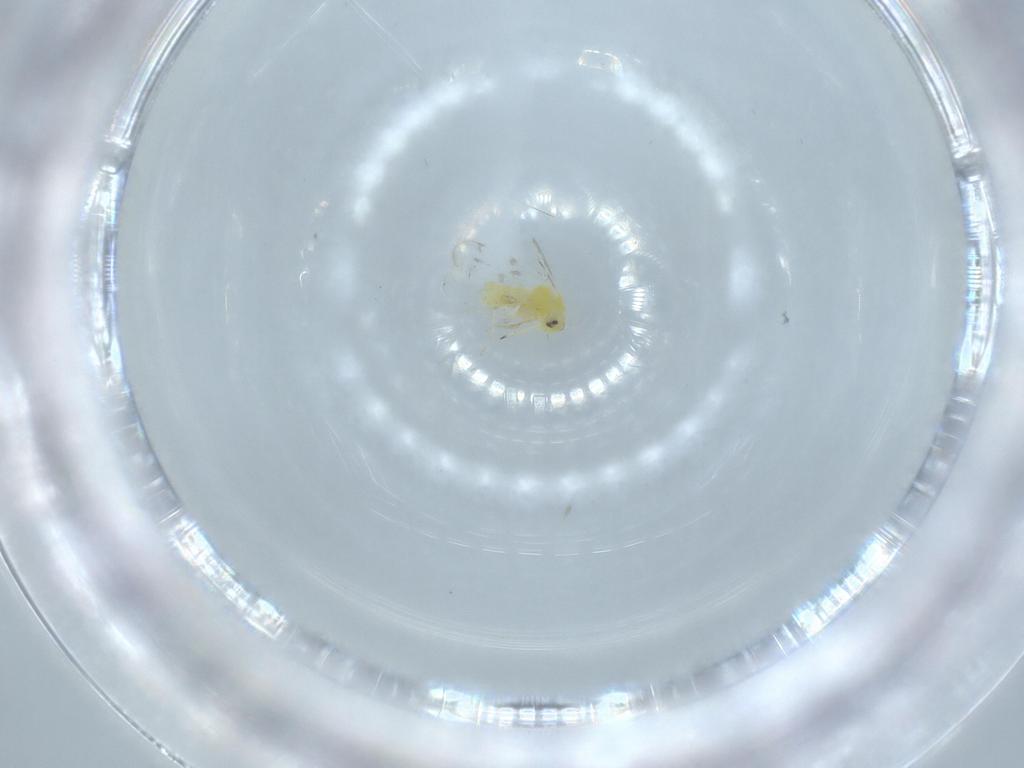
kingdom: Animalia
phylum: Arthropoda
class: Insecta
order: Hemiptera
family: Aleyrodidae
